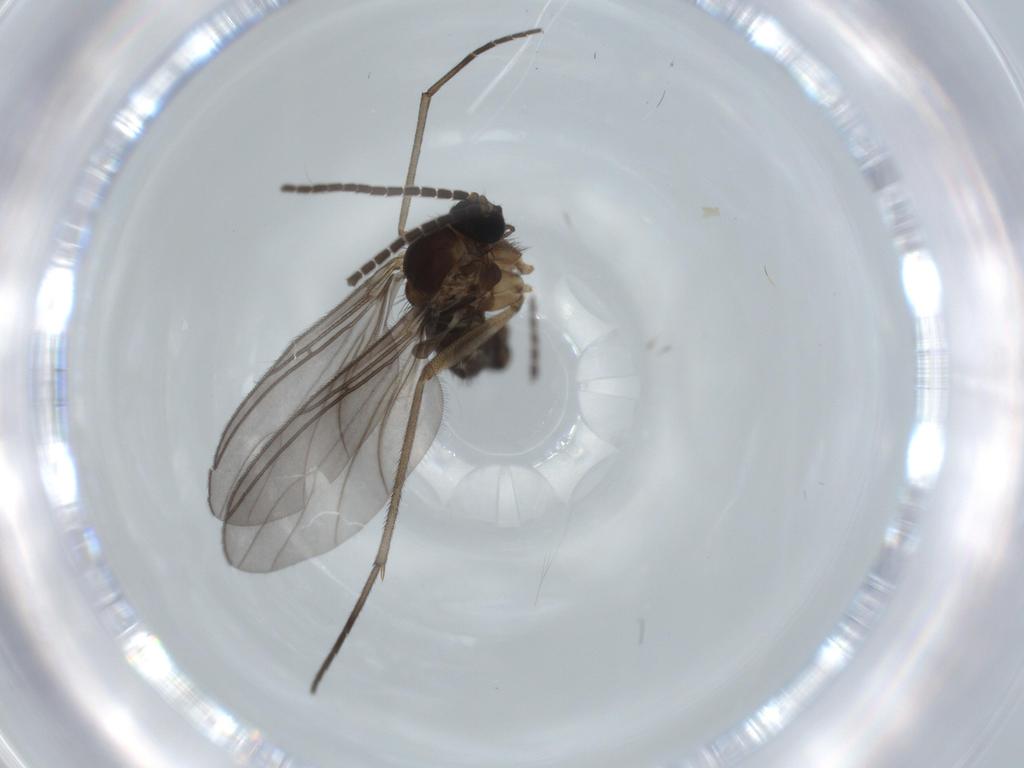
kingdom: Animalia
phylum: Arthropoda
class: Insecta
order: Diptera
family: Sciaridae
